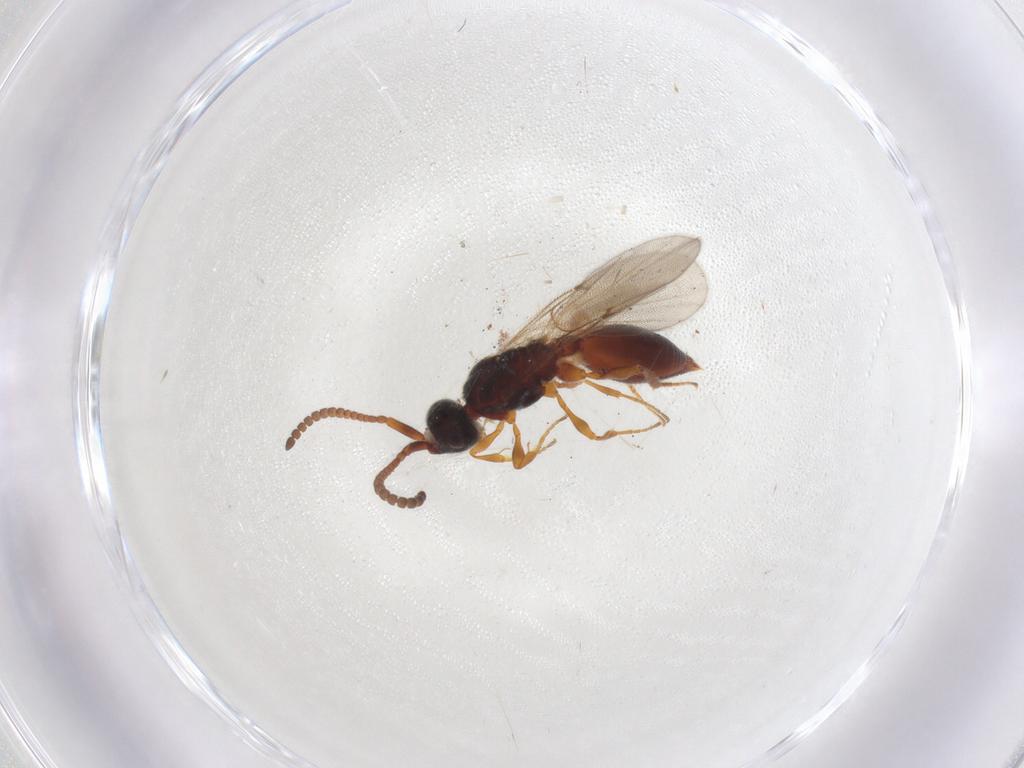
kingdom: Animalia
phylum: Arthropoda
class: Insecta
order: Hymenoptera
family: Braconidae
